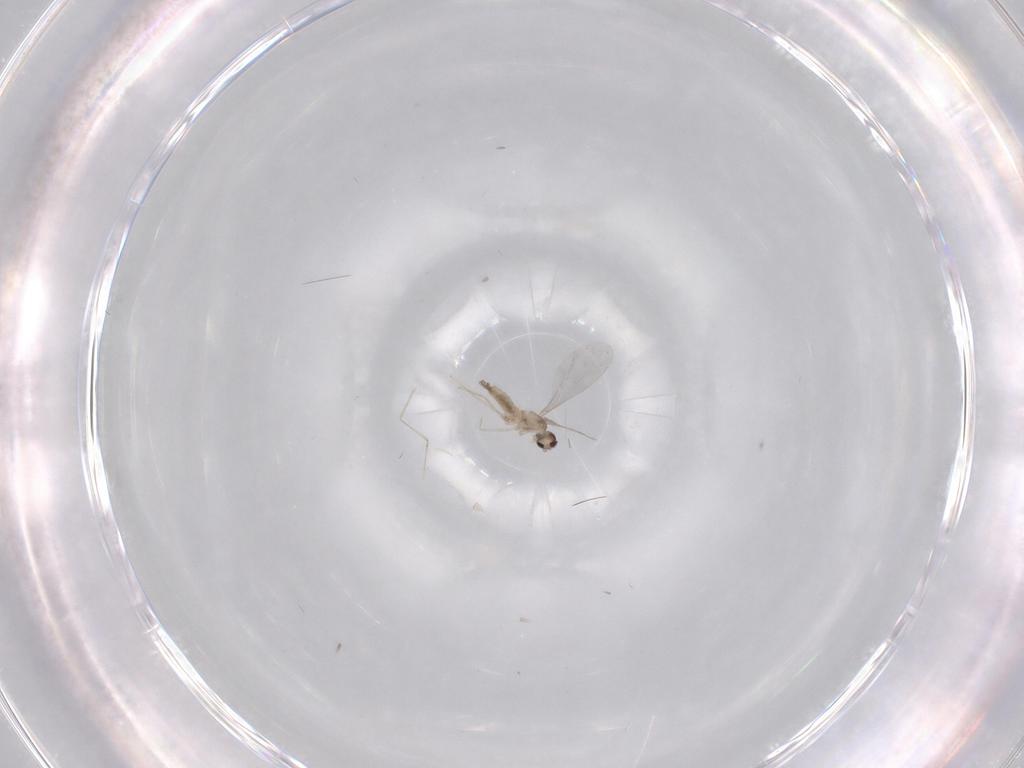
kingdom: Animalia
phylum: Arthropoda
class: Insecta
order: Diptera
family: Cecidomyiidae
